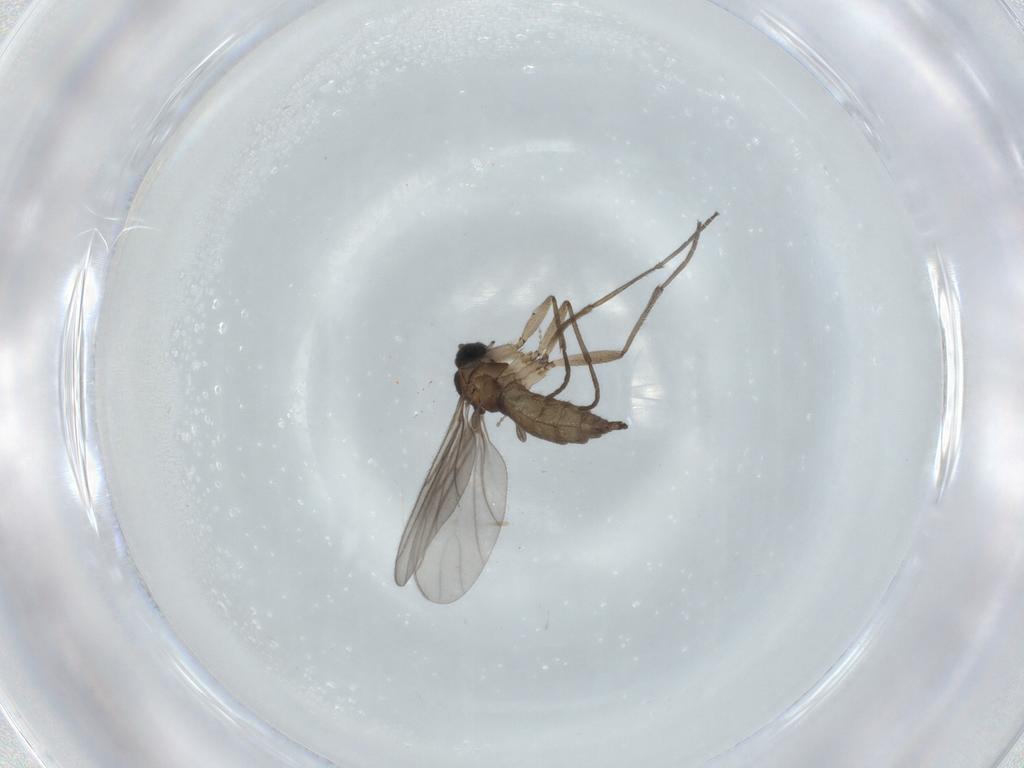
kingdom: Animalia
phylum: Arthropoda
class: Insecta
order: Diptera
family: Sciaridae
